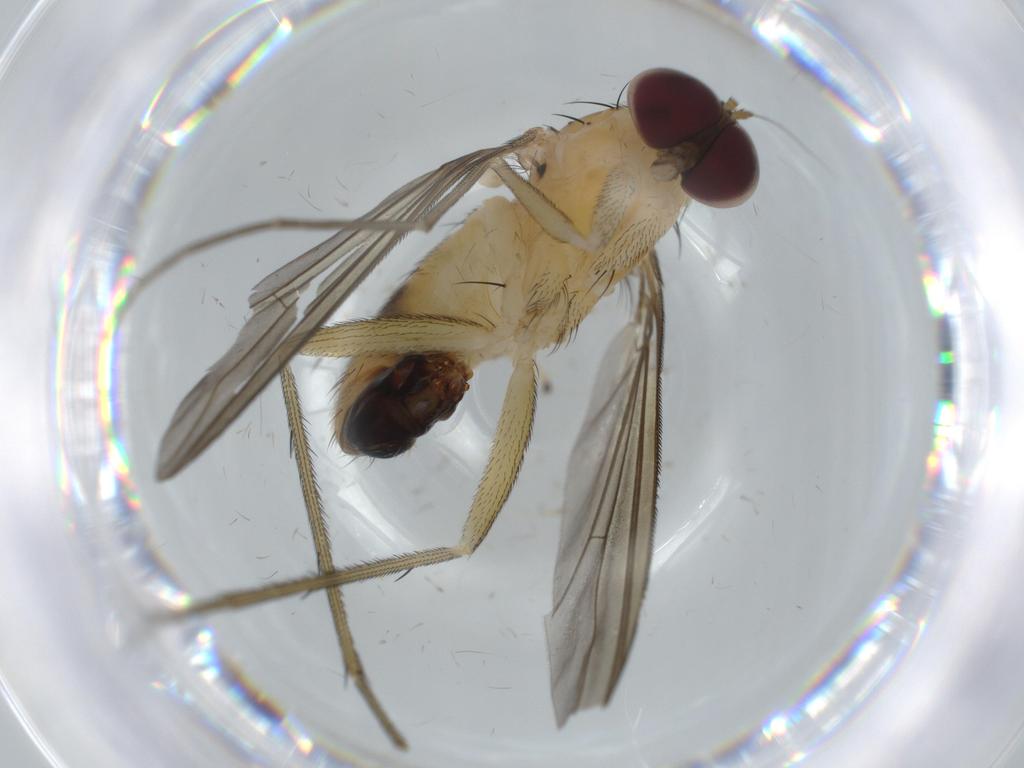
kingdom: Animalia
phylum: Arthropoda
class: Insecta
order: Diptera
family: Dolichopodidae
